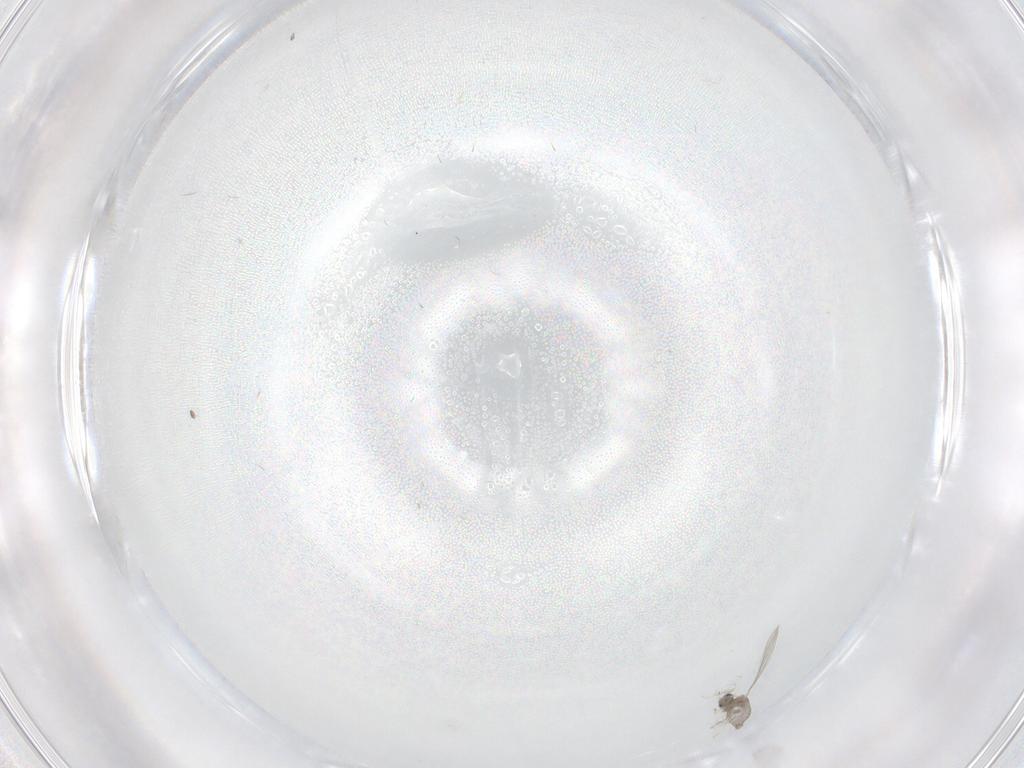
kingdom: Animalia
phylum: Arthropoda
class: Insecta
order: Diptera
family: Cecidomyiidae
